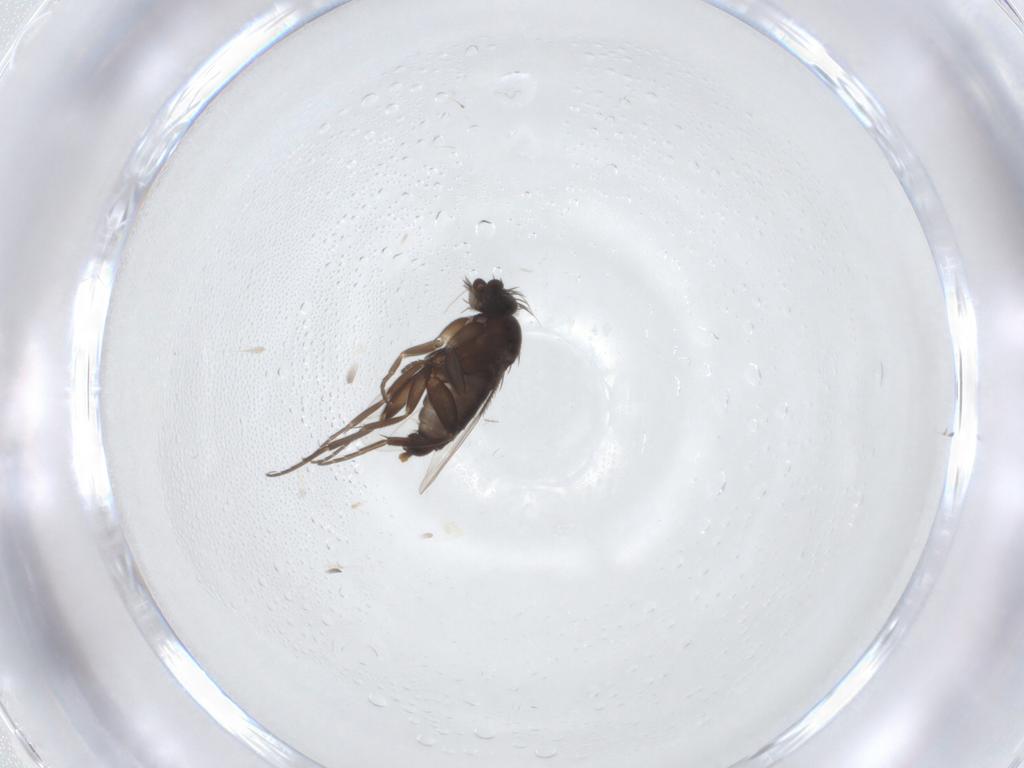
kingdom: Animalia
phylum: Arthropoda
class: Insecta
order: Diptera
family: Phoridae
